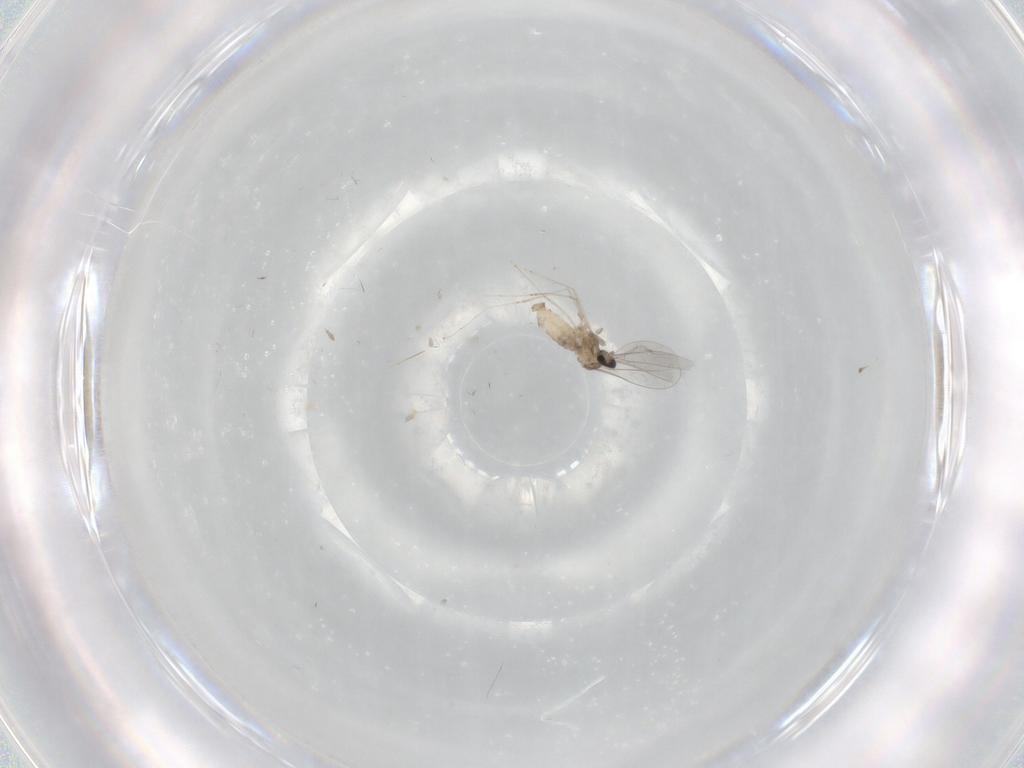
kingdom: Animalia
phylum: Arthropoda
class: Insecta
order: Diptera
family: Cecidomyiidae
